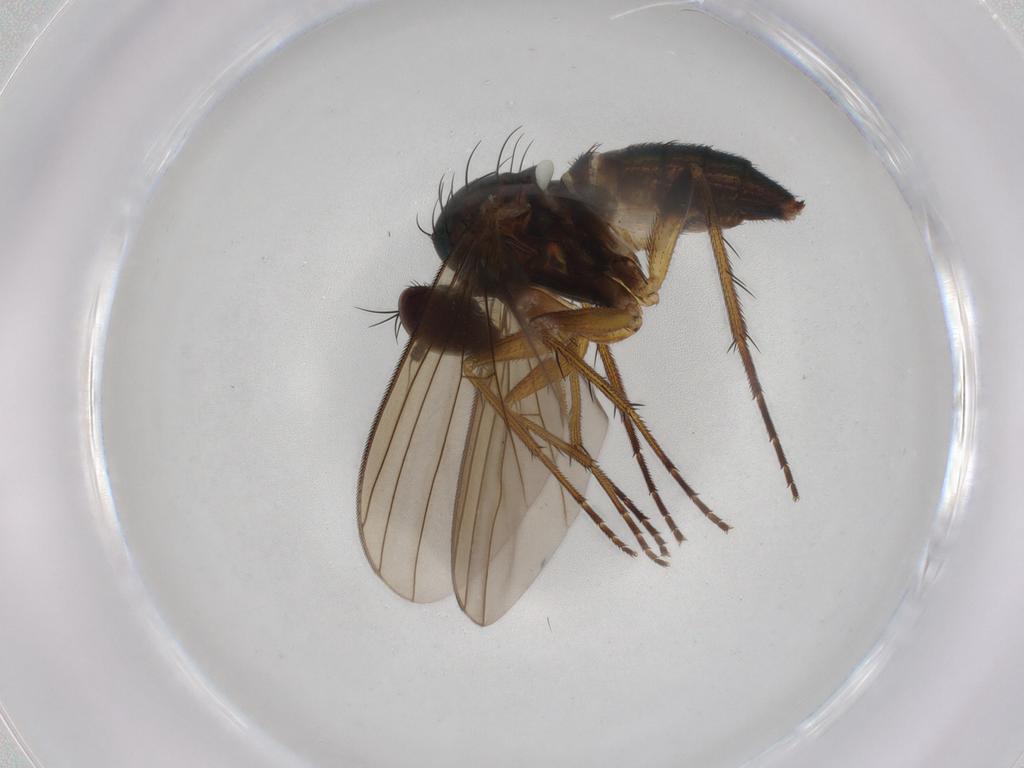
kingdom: Animalia
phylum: Arthropoda
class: Insecta
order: Diptera
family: Dolichopodidae
